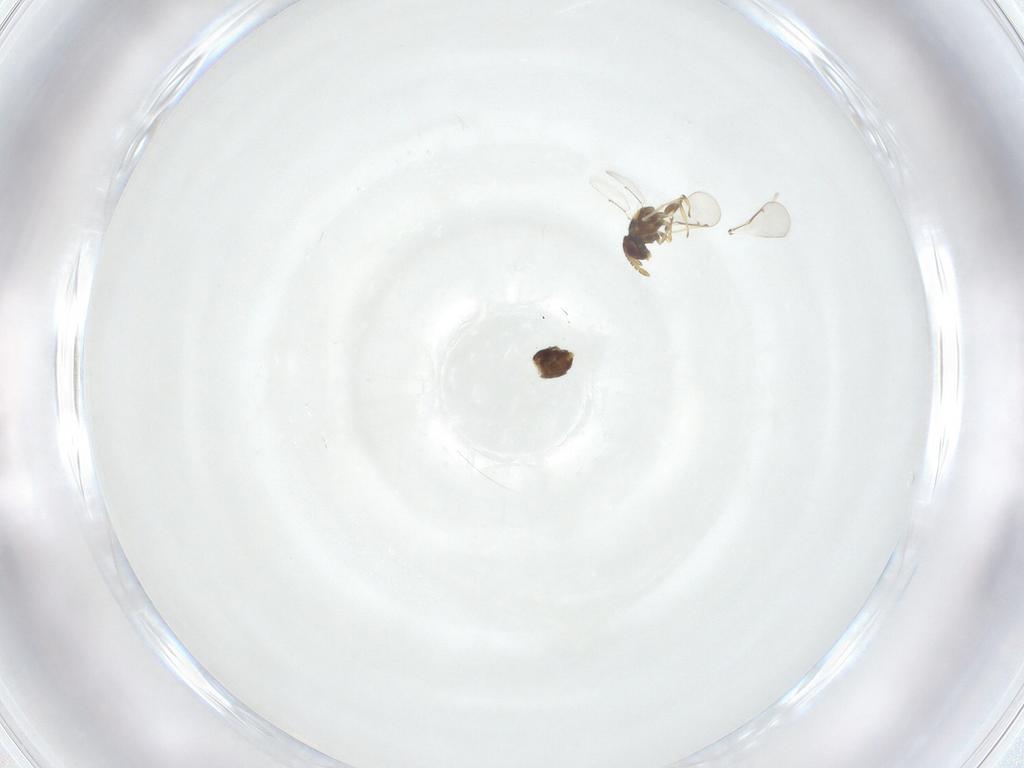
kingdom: Animalia
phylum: Arthropoda
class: Insecta
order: Hymenoptera
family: Aphelinidae
